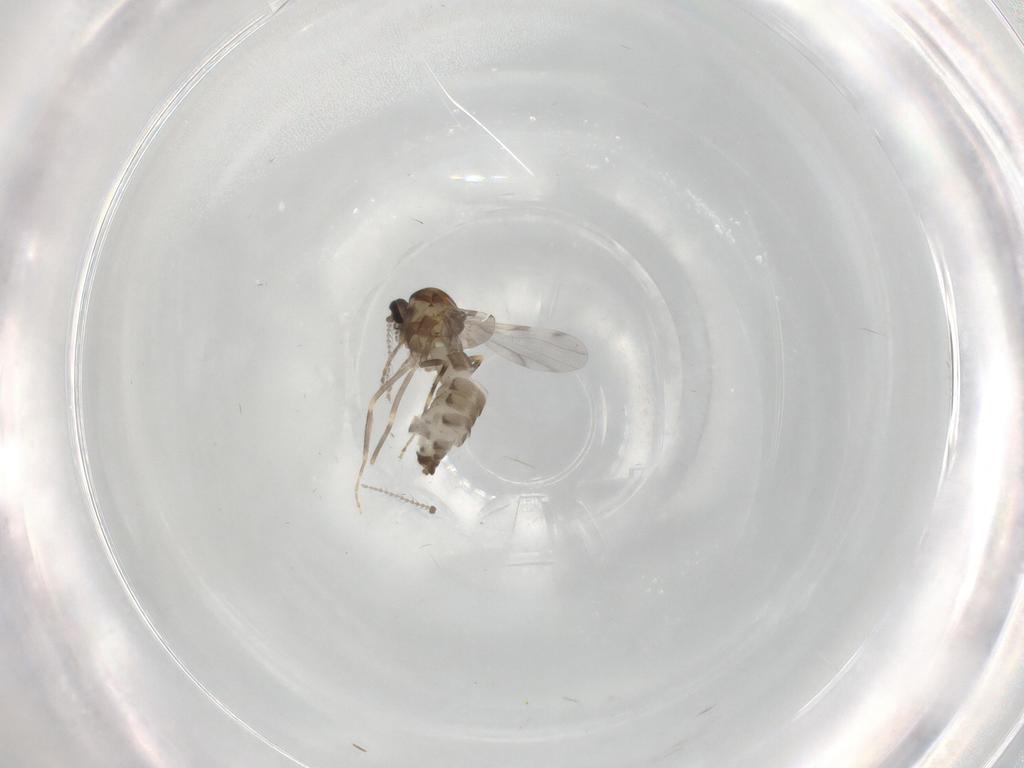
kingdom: Animalia
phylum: Arthropoda
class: Insecta
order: Diptera
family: Ceratopogonidae
